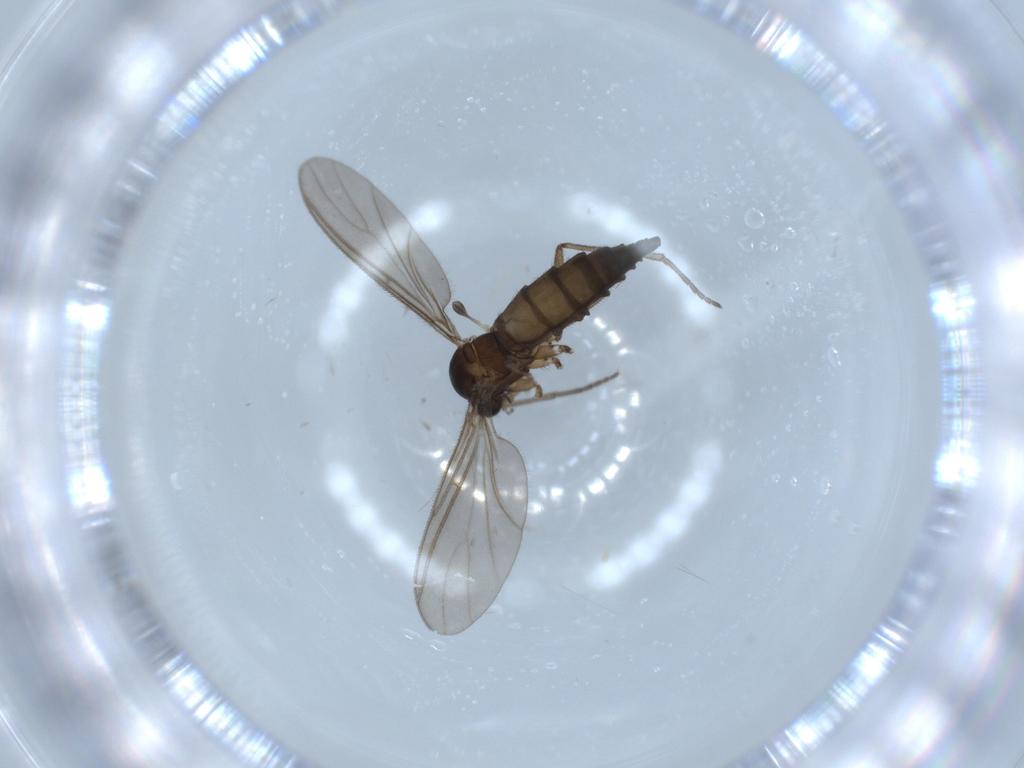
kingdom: Animalia
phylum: Arthropoda
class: Insecta
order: Diptera
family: Sciaridae
